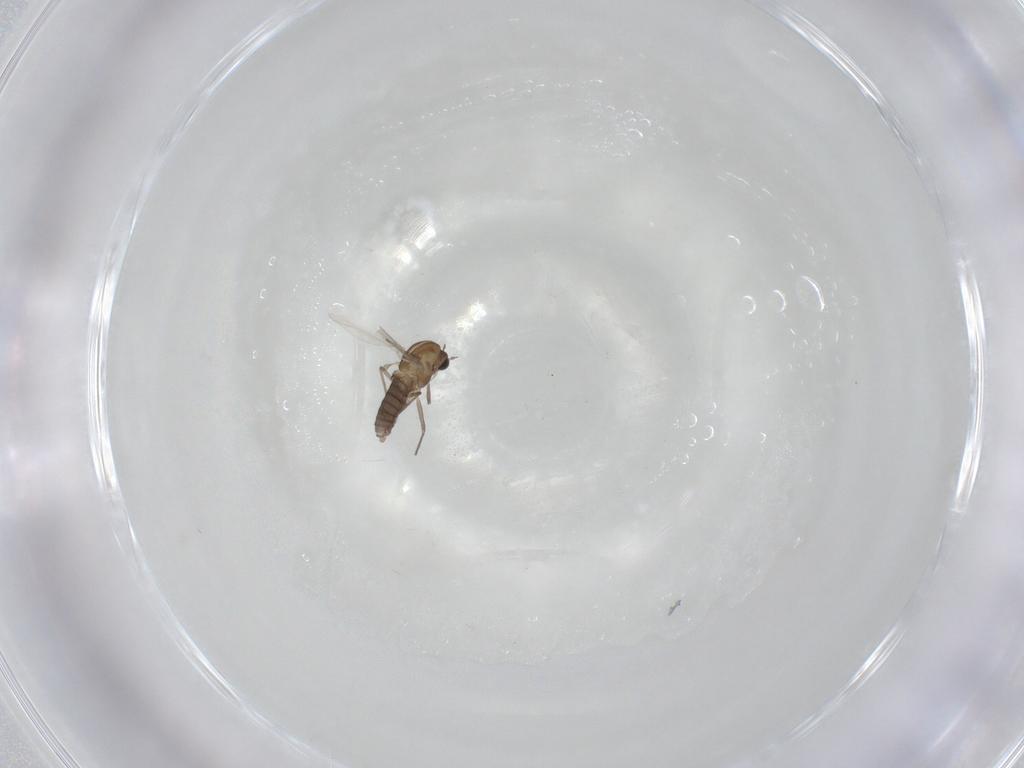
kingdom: Animalia
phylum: Arthropoda
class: Insecta
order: Diptera
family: Chironomidae
